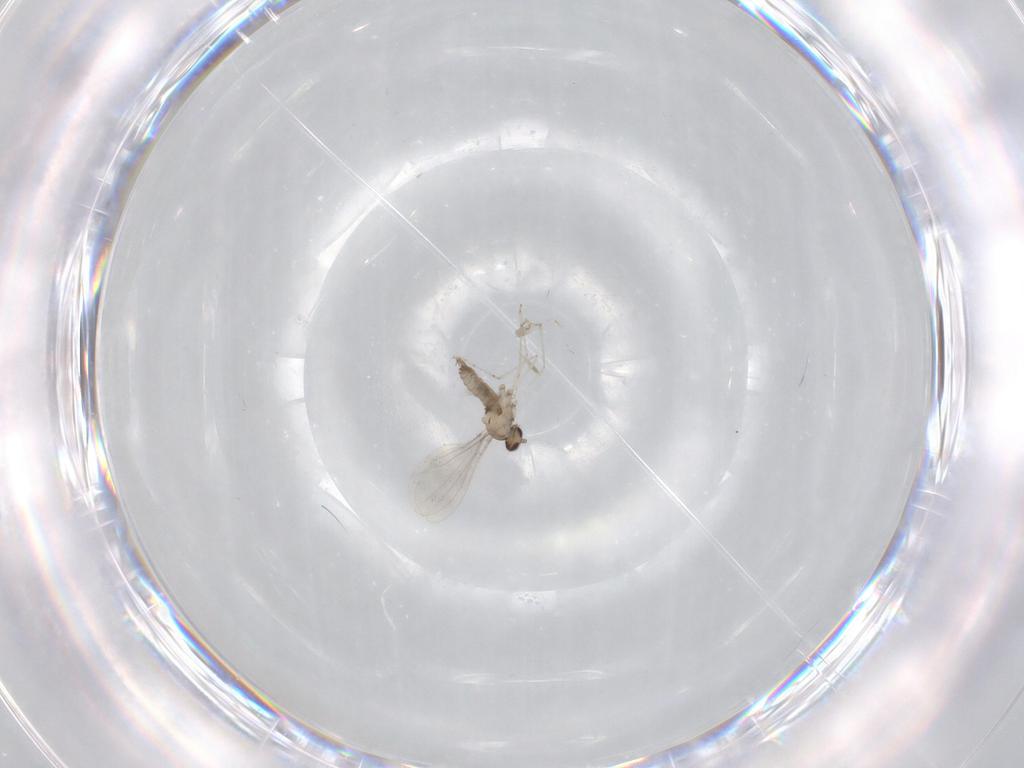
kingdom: Animalia
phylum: Arthropoda
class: Insecta
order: Diptera
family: Cecidomyiidae
